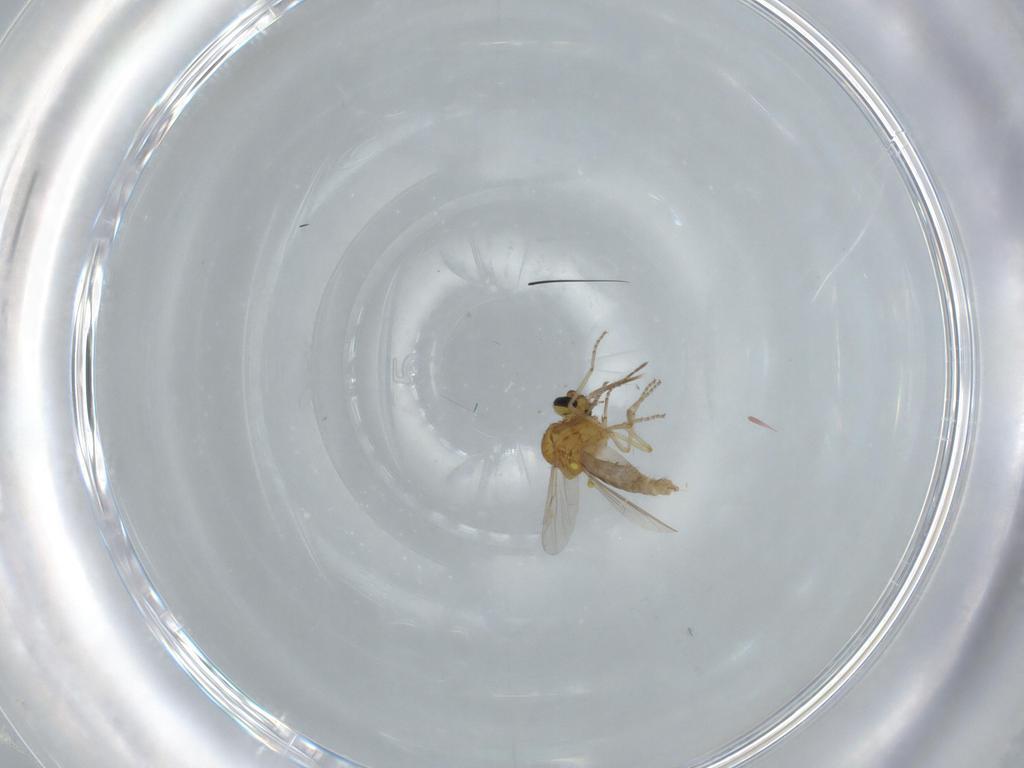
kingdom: Animalia
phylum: Arthropoda
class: Insecta
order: Diptera
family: Ceratopogonidae
